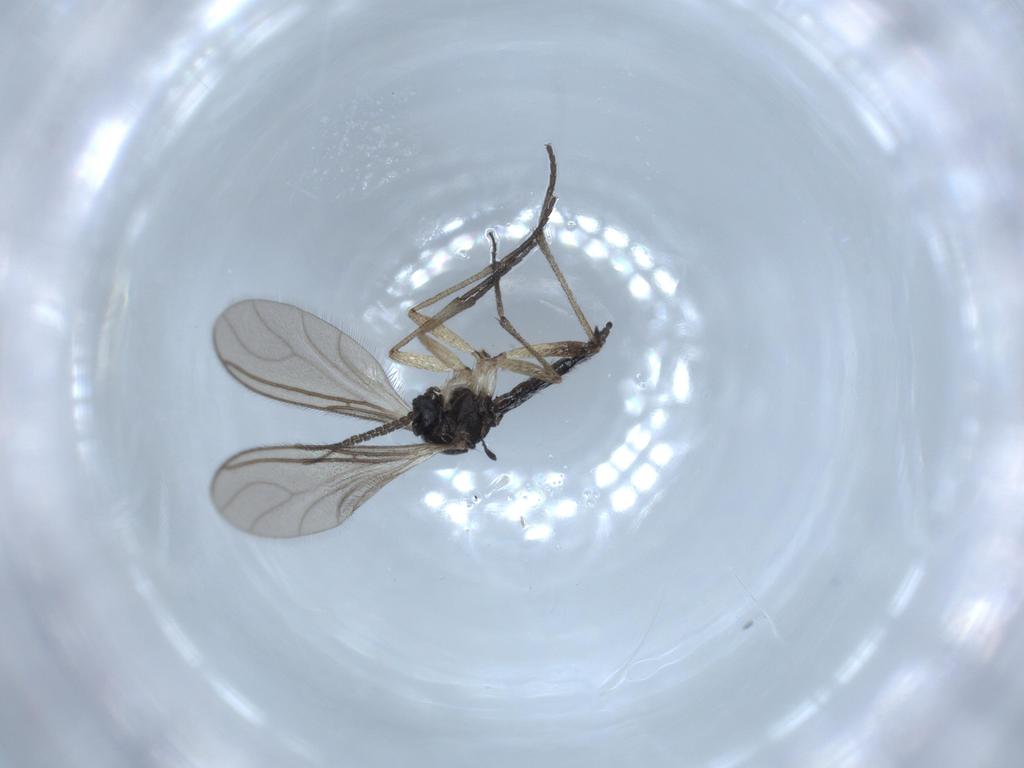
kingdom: Animalia
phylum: Arthropoda
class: Insecta
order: Diptera
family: Sciaridae
